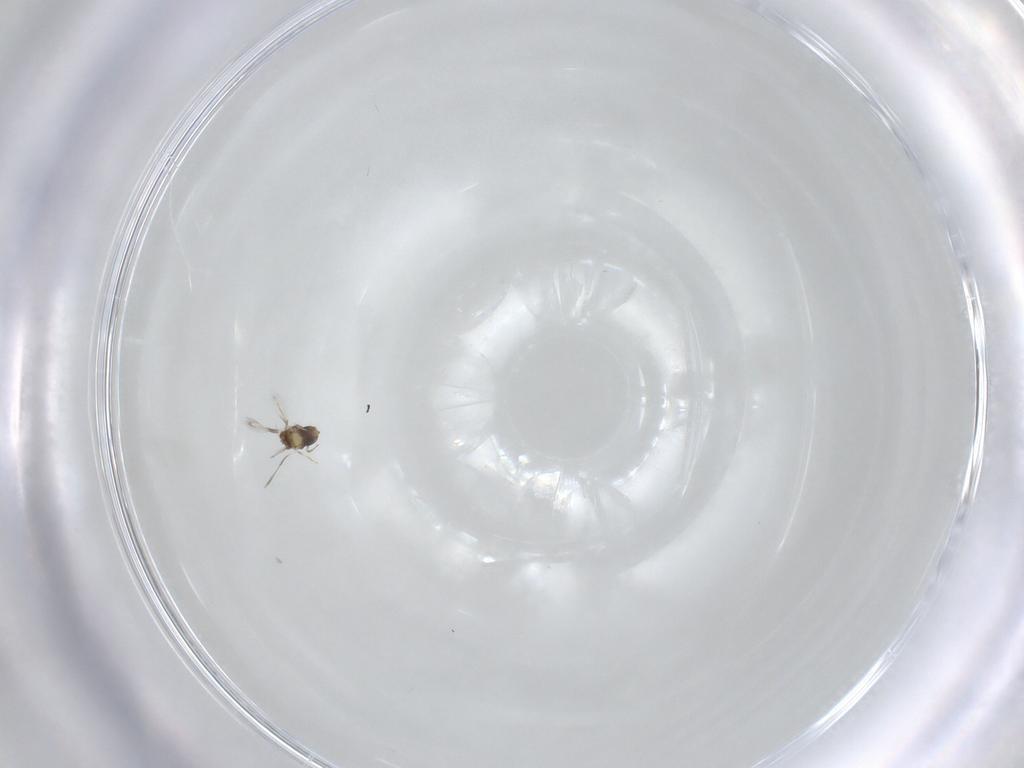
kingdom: Animalia
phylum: Arthropoda
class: Insecta
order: Hymenoptera
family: Aphelinidae
